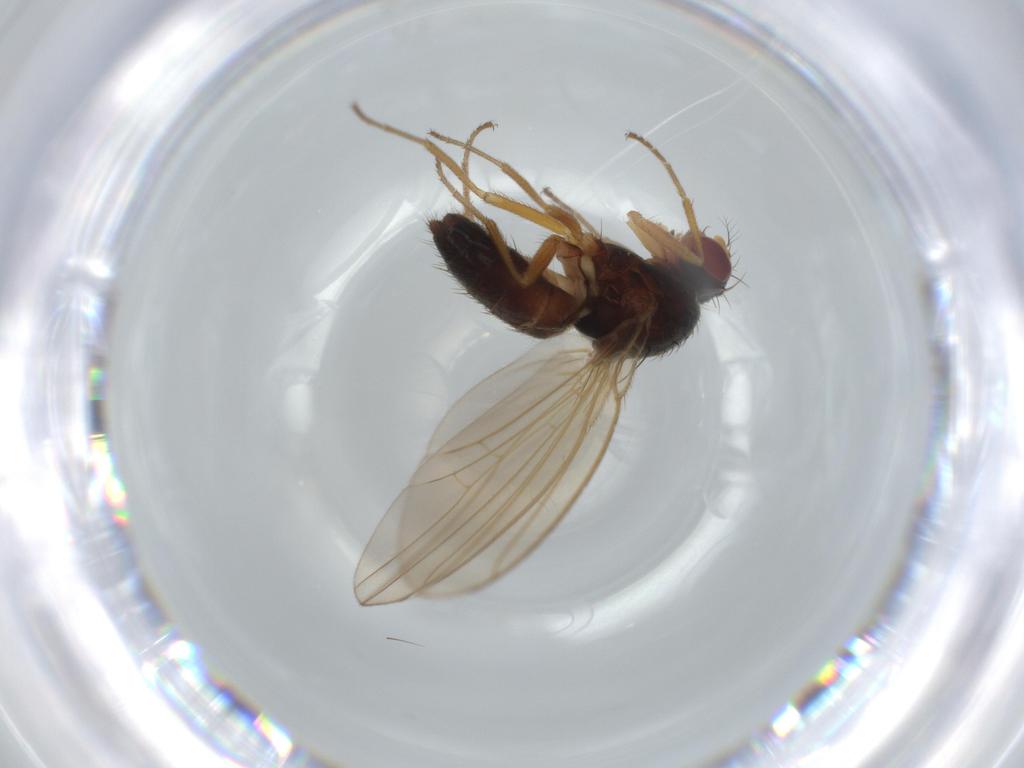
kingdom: Animalia
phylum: Arthropoda
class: Insecta
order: Diptera
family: Drosophilidae
